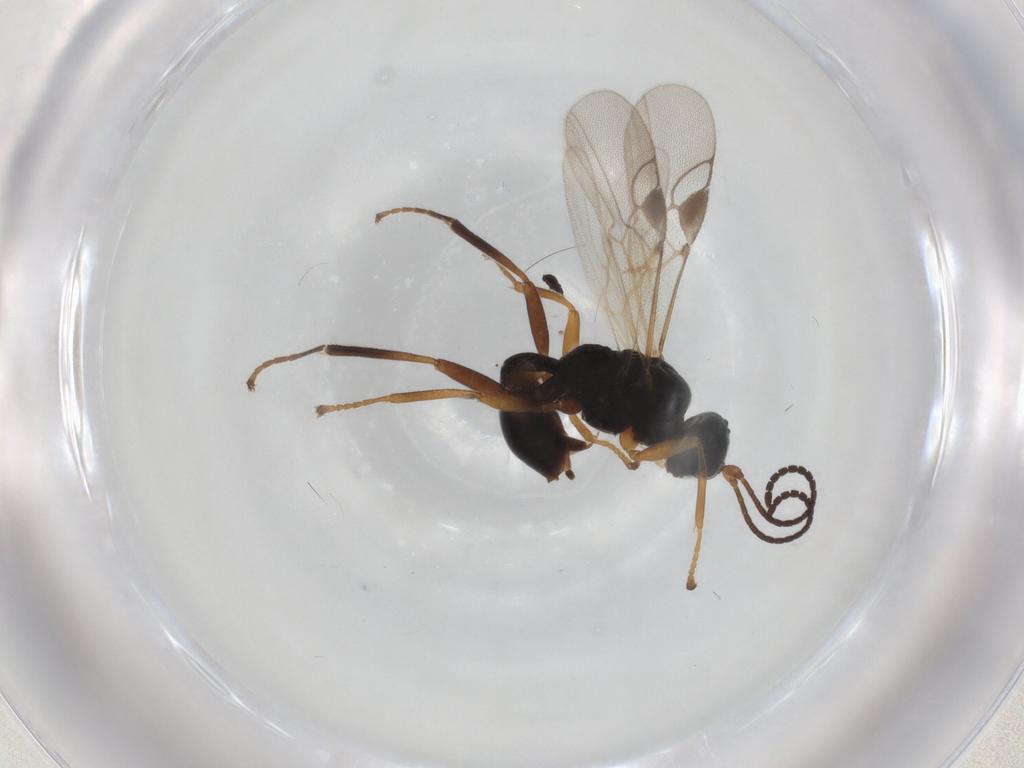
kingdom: Animalia
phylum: Arthropoda
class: Insecta
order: Hymenoptera
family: Braconidae
